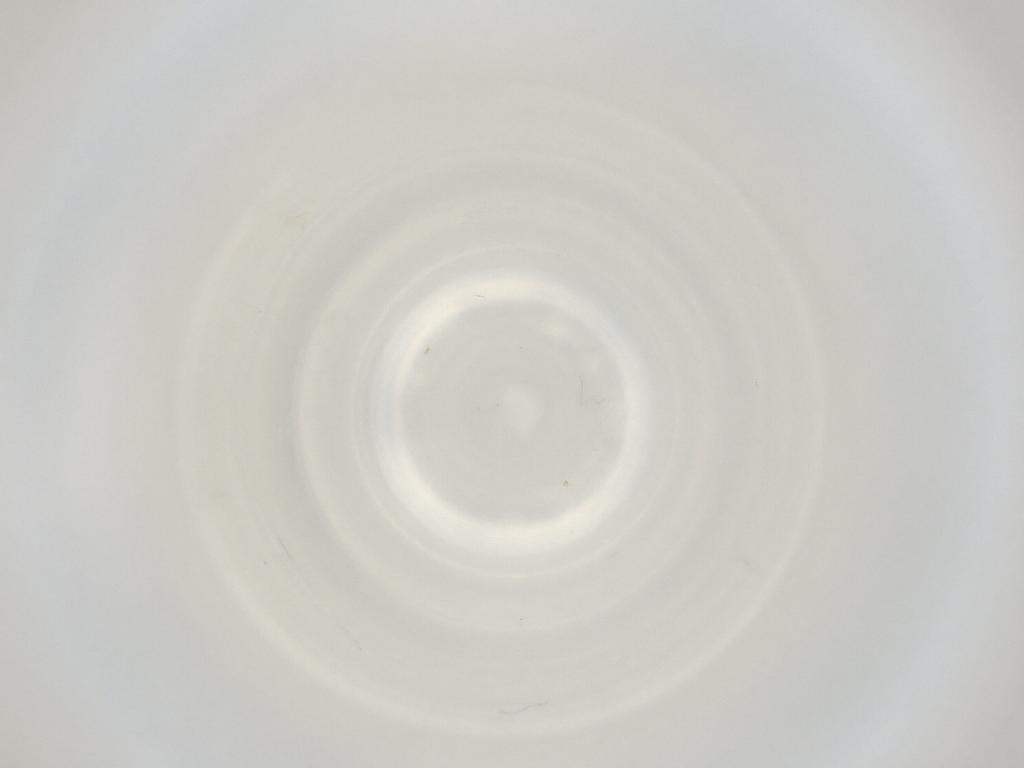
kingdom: Animalia
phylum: Arthropoda
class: Insecta
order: Diptera
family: Cecidomyiidae
